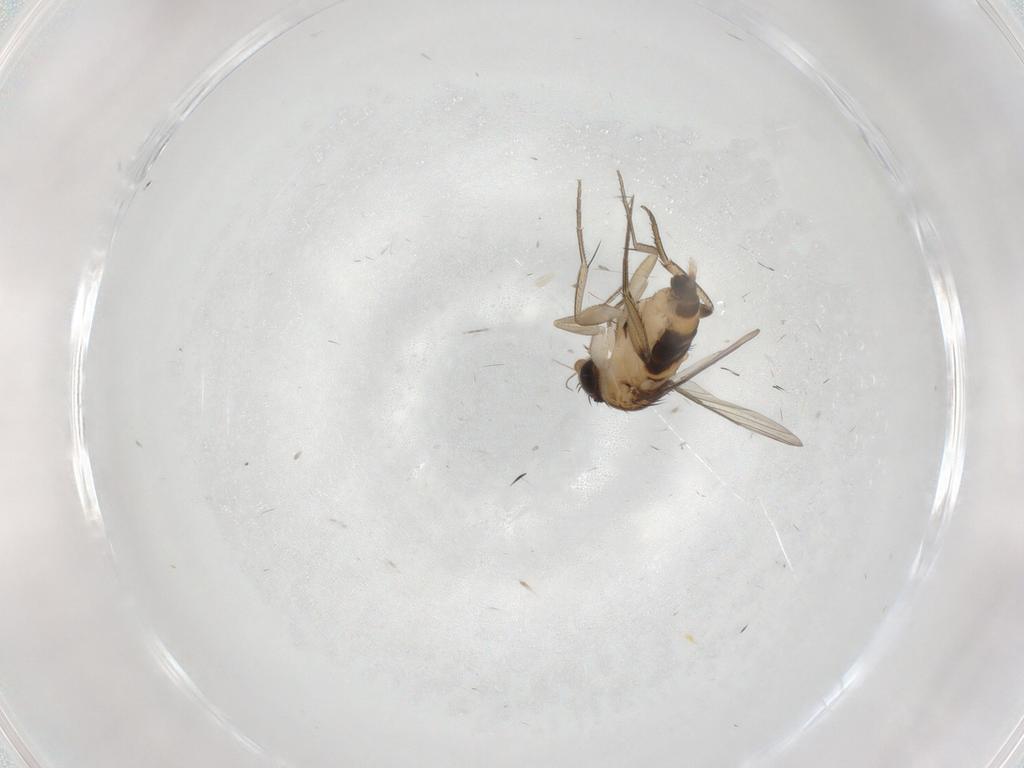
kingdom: Animalia
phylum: Arthropoda
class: Insecta
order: Diptera
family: Phoridae
